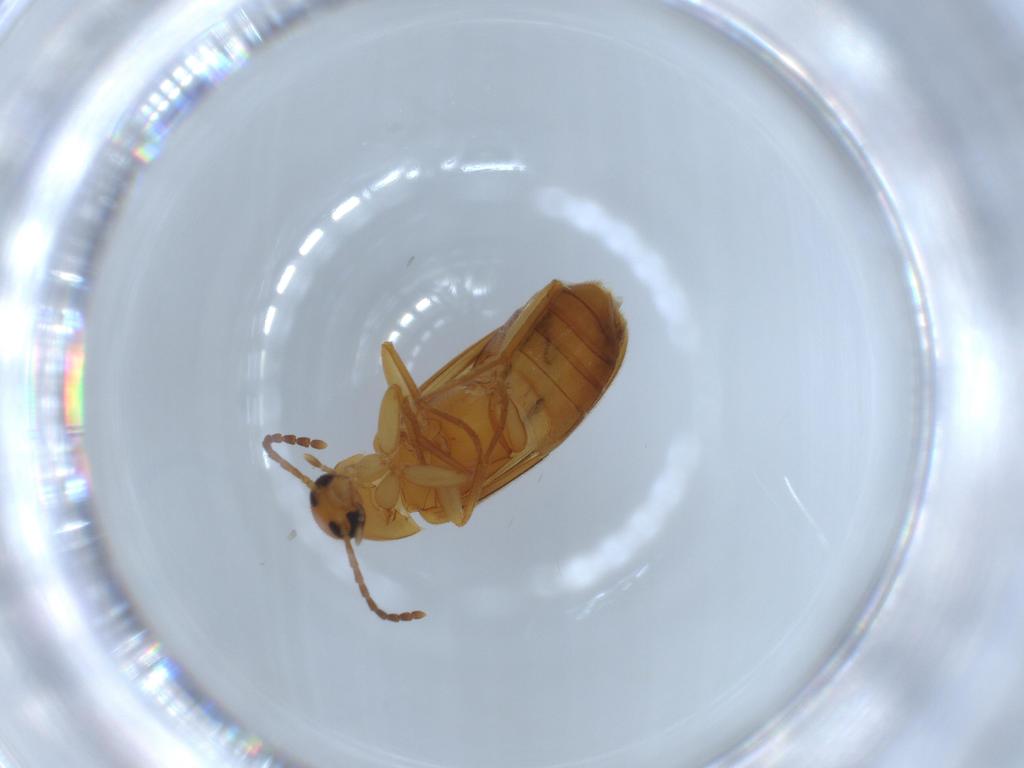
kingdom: Animalia
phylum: Arthropoda
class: Insecta
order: Coleoptera
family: Scraptiidae
